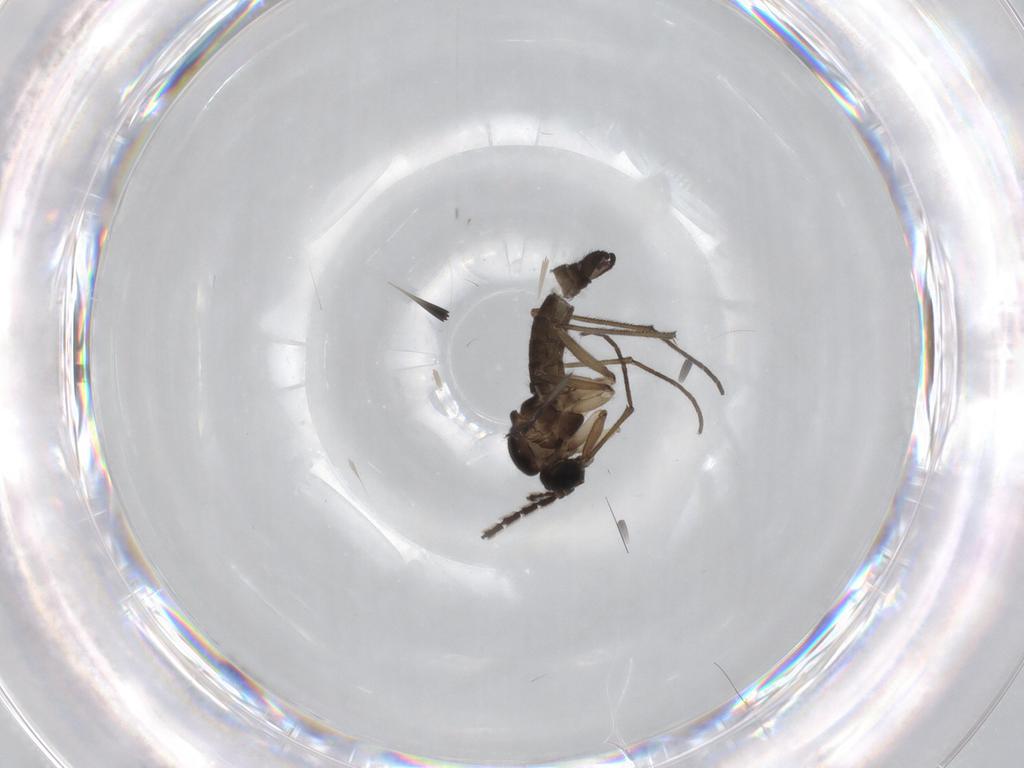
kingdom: Animalia
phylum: Arthropoda
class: Insecta
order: Diptera
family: Sciaridae
